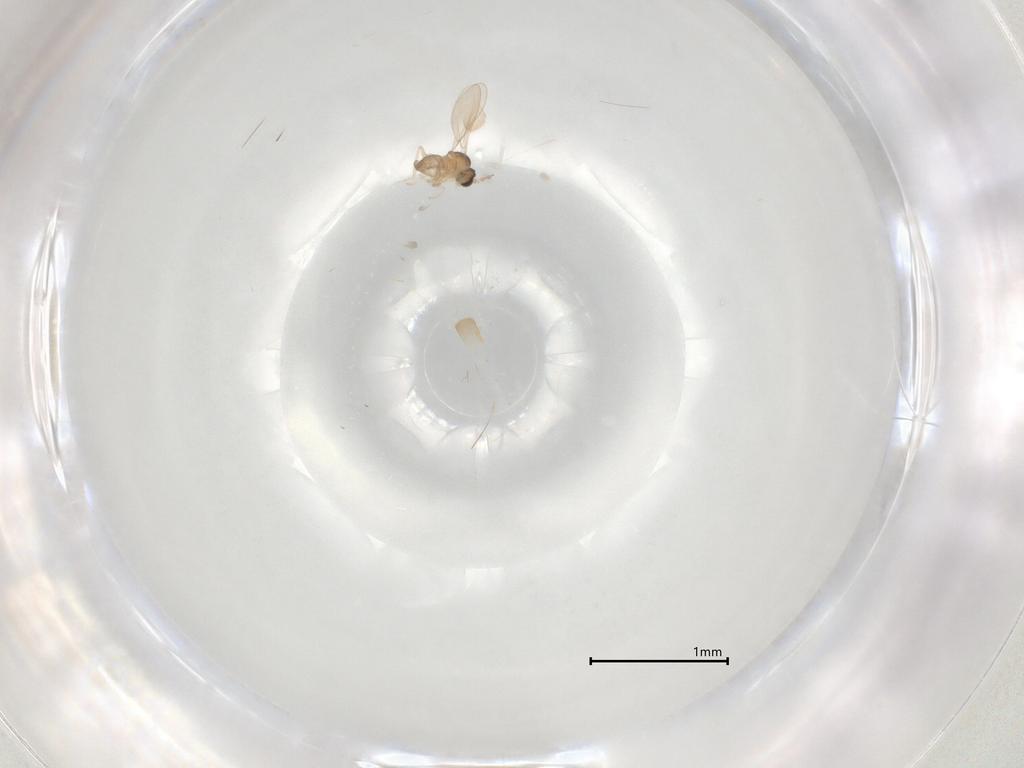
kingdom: Animalia
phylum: Arthropoda
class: Insecta
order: Diptera
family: Cecidomyiidae
